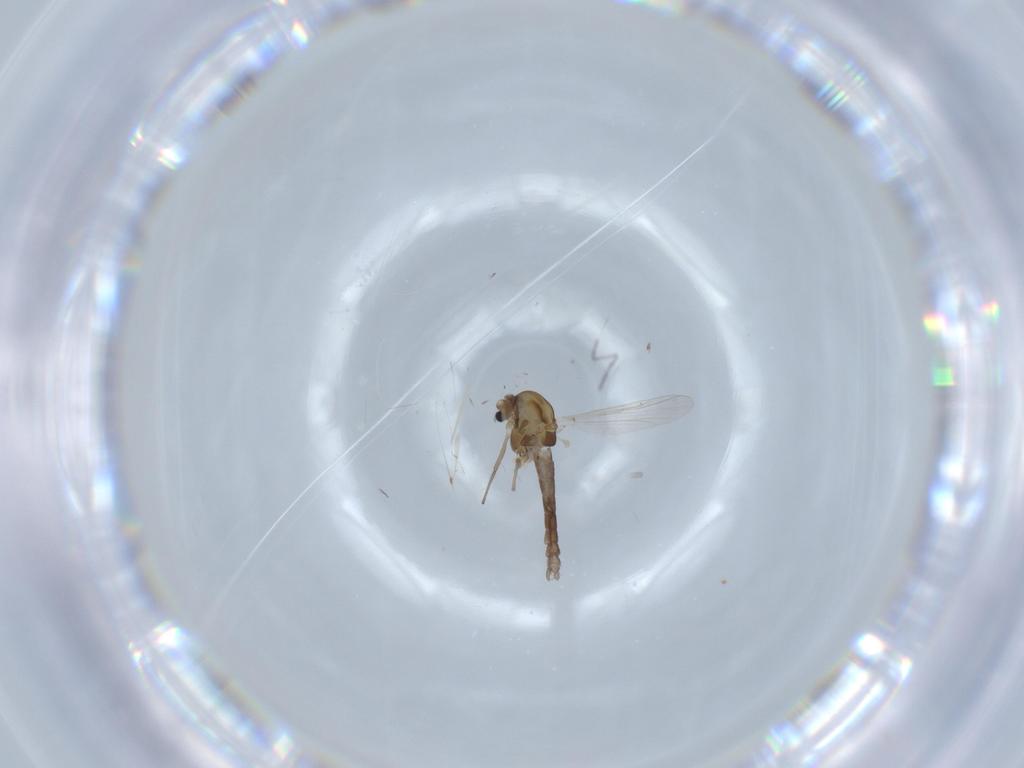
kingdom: Animalia
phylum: Arthropoda
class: Insecta
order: Diptera
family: Chironomidae
